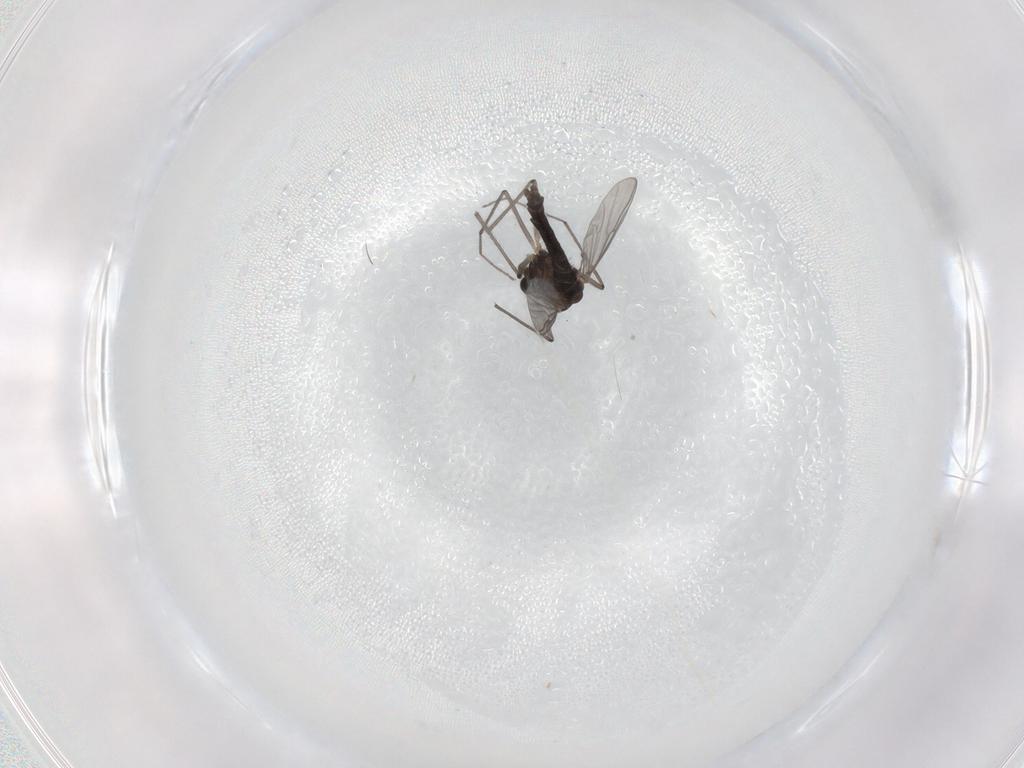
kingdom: Animalia
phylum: Arthropoda
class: Insecta
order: Diptera
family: Chironomidae
